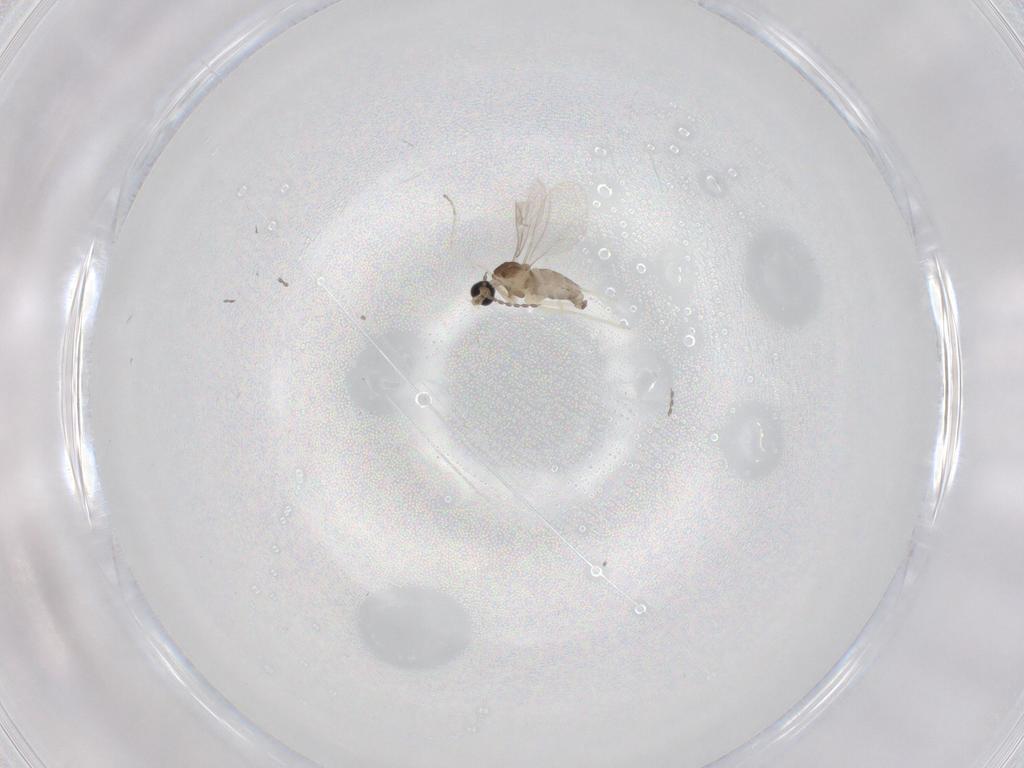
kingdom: Animalia
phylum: Arthropoda
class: Insecta
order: Diptera
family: Cecidomyiidae
